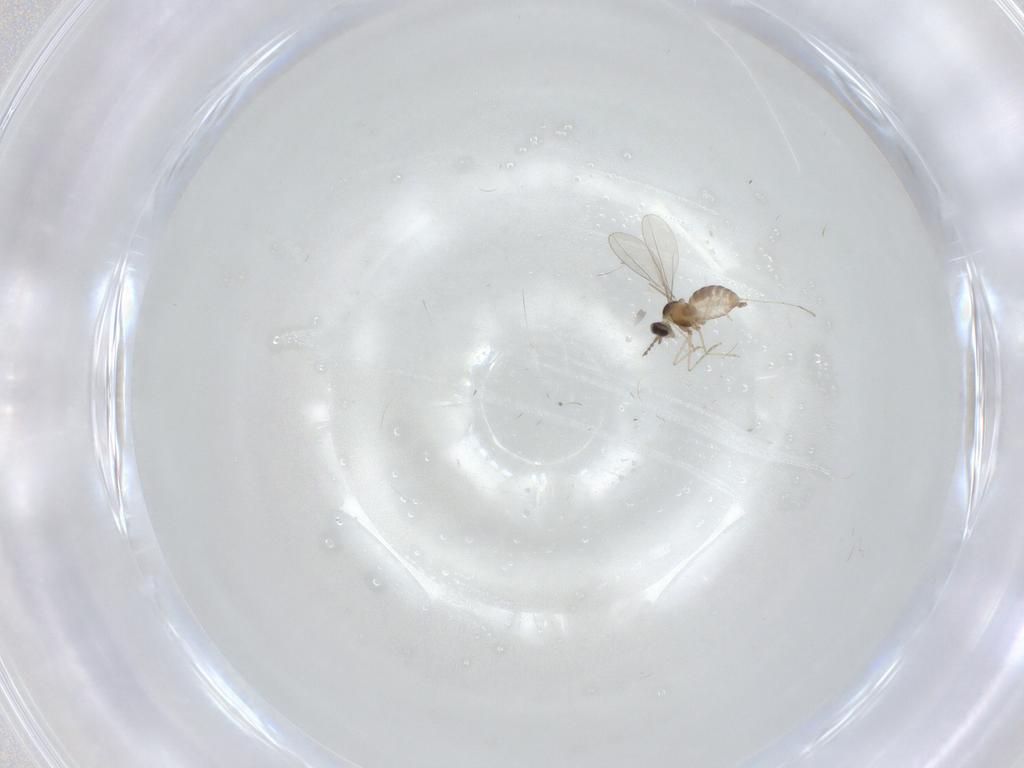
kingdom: Animalia
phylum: Arthropoda
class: Insecta
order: Diptera
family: Cecidomyiidae
